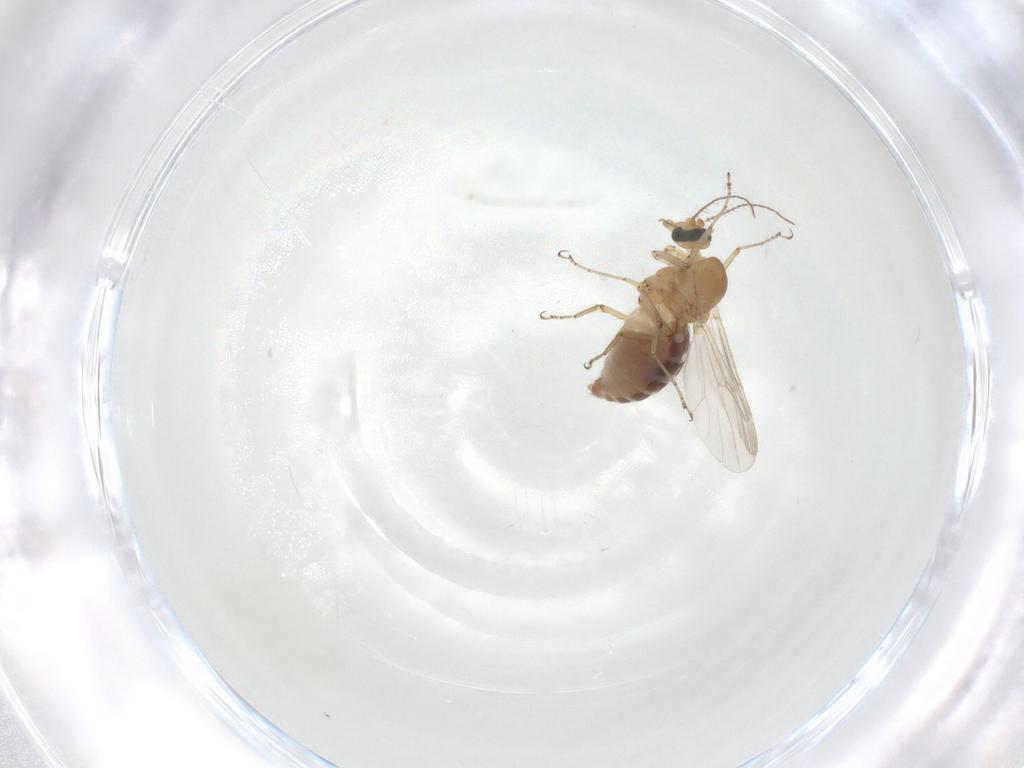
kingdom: Animalia
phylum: Arthropoda
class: Insecta
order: Diptera
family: Ceratopogonidae
